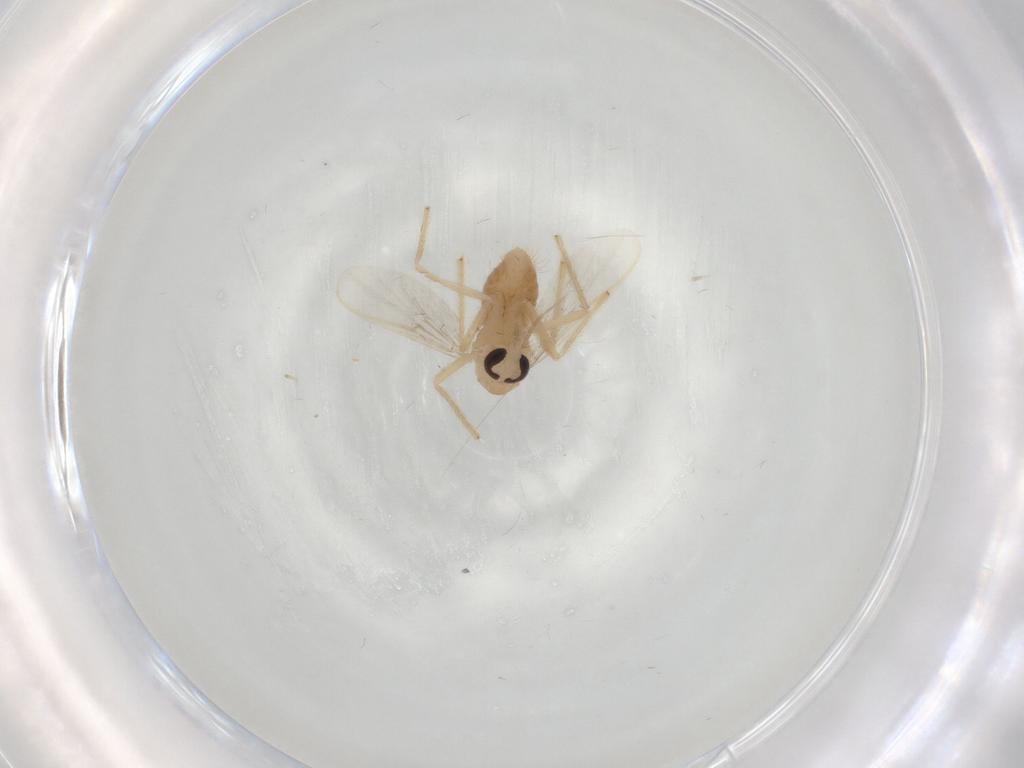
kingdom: Animalia
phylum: Arthropoda
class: Insecta
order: Diptera
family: Chironomidae
